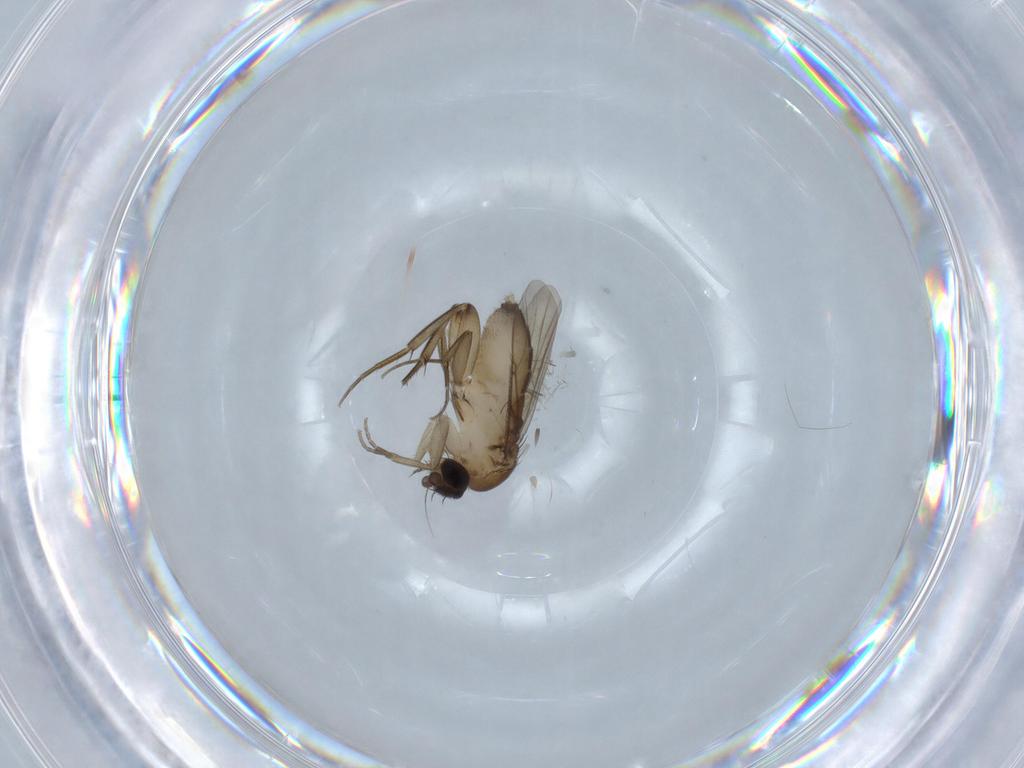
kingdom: Animalia
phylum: Arthropoda
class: Insecta
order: Diptera
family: Phoridae
